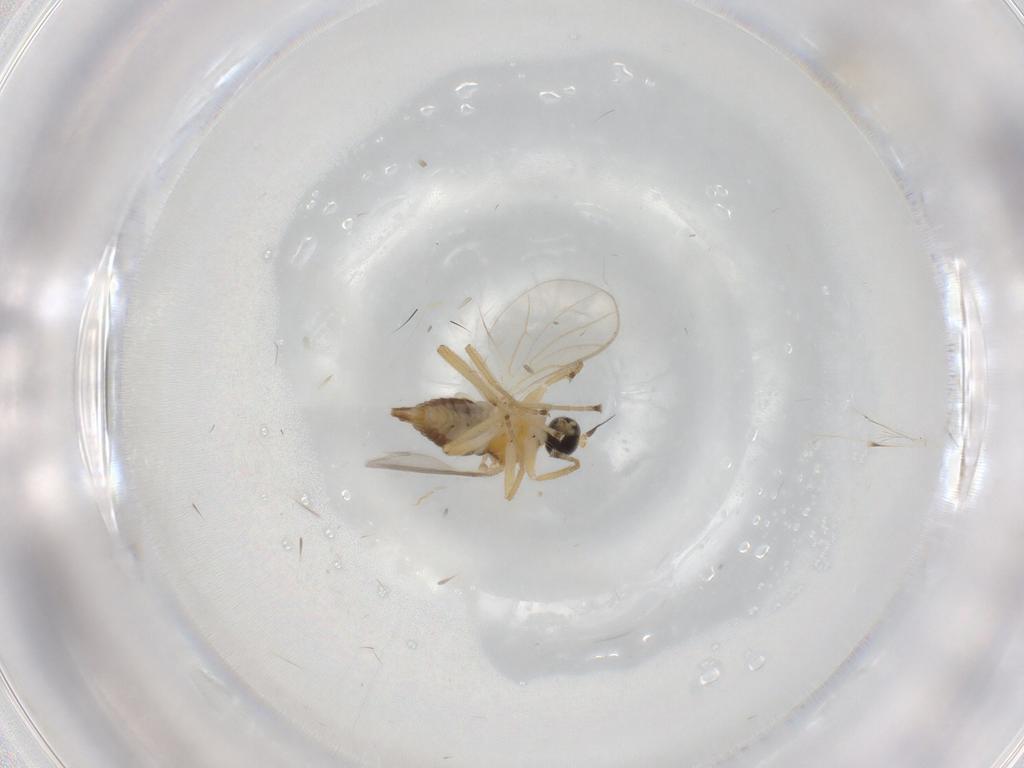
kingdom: Animalia
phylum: Arthropoda
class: Insecta
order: Diptera
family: Hybotidae
